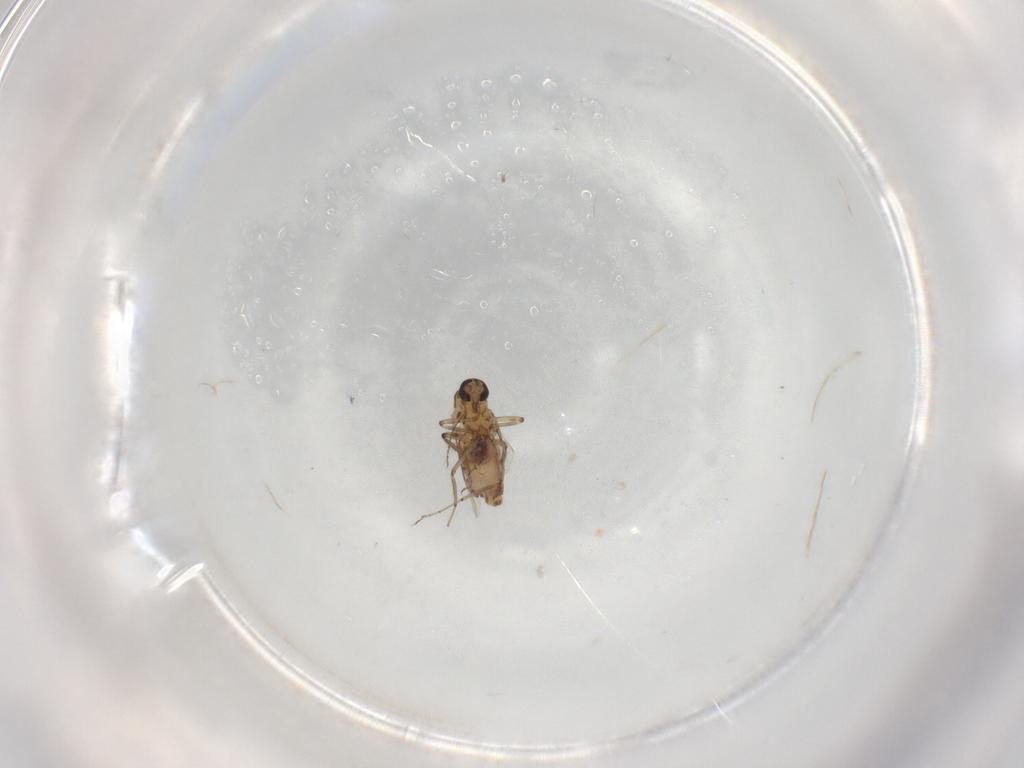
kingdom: Animalia
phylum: Arthropoda
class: Insecta
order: Diptera
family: Ceratopogonidae
